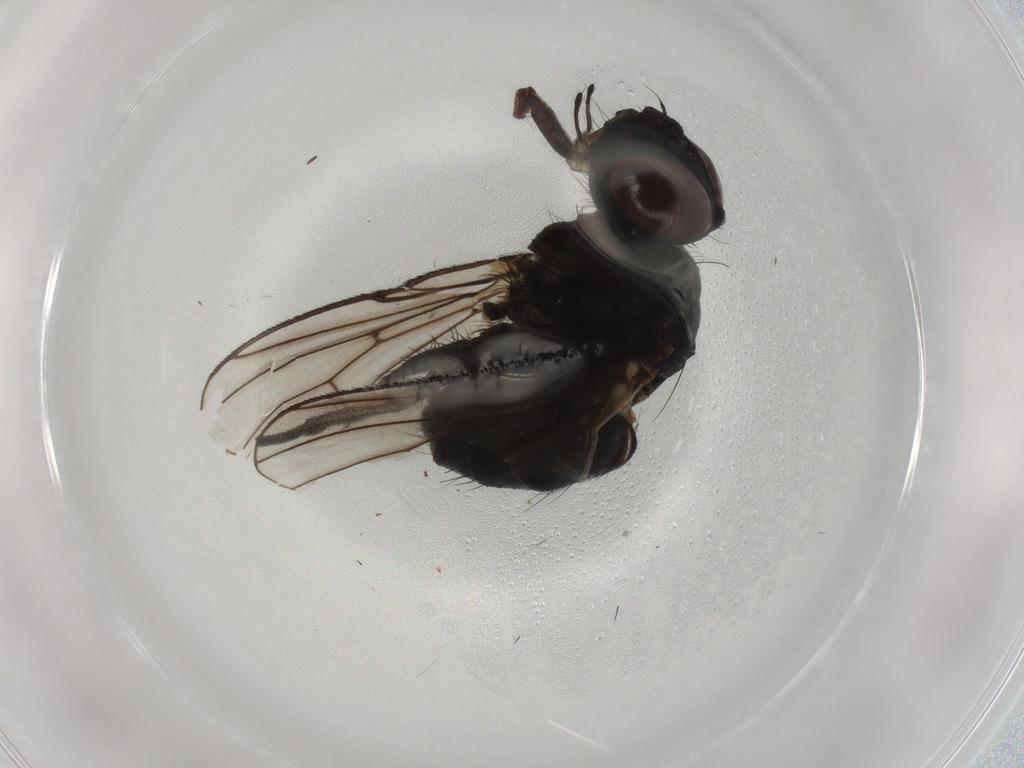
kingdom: Animalia
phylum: Arthropoda
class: Insecta
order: Diptera
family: Muscidae
